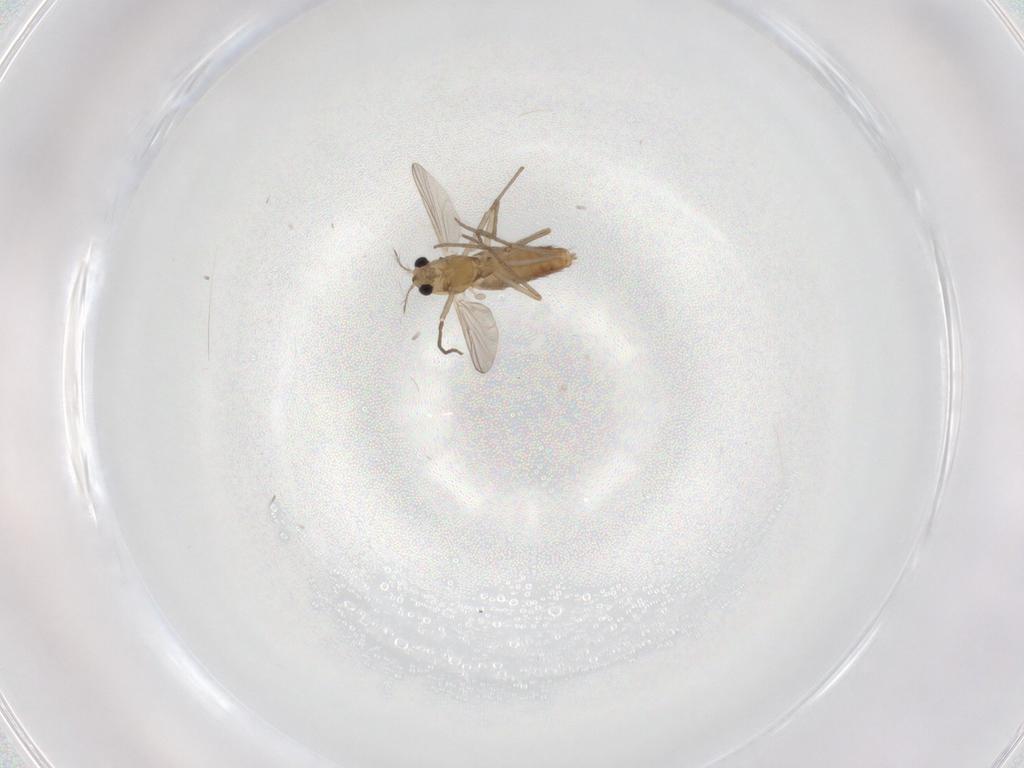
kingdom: Animalia
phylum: Arthropoda
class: Insecta
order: Diptera
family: Chironomidae
